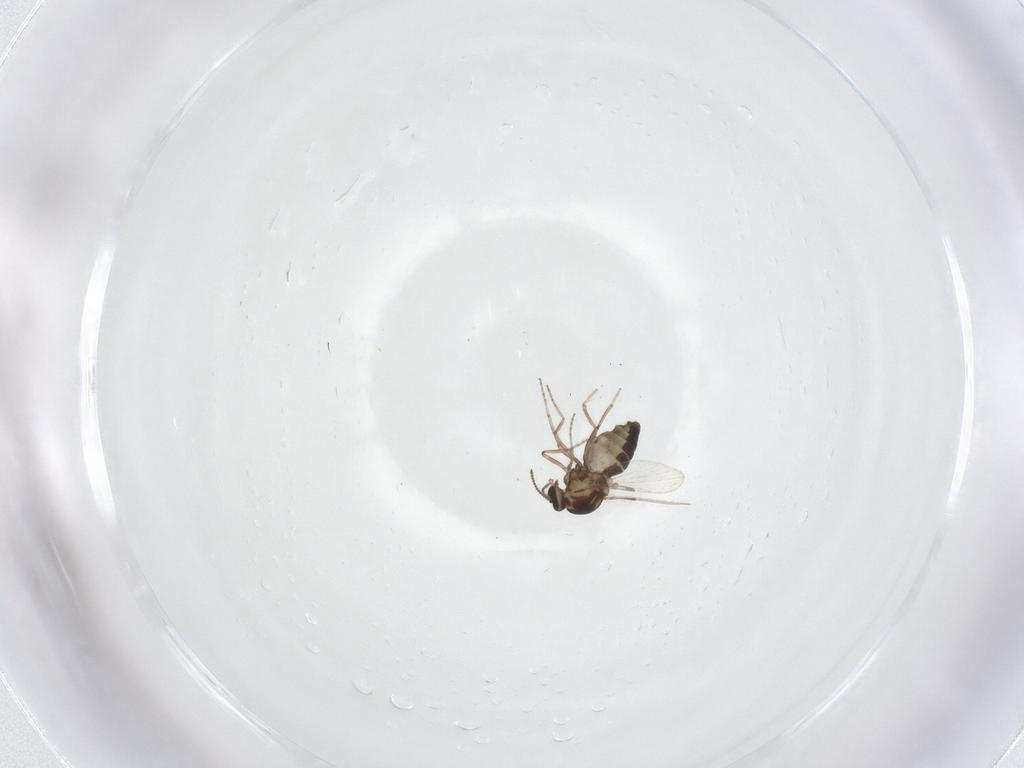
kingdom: Animalia
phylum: Arthropoda
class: Insecta
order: Diptera
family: Ceratopogonidae
